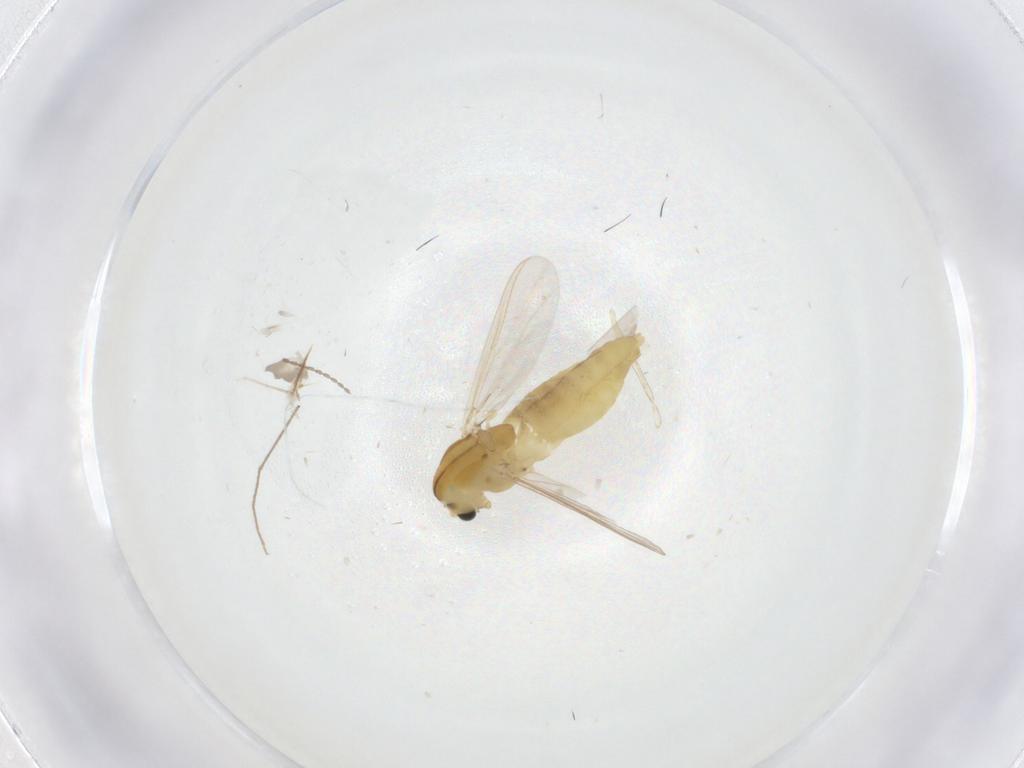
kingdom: Animalia
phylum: Arthropoda
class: Insecta
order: Diptera
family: Chironomidae
